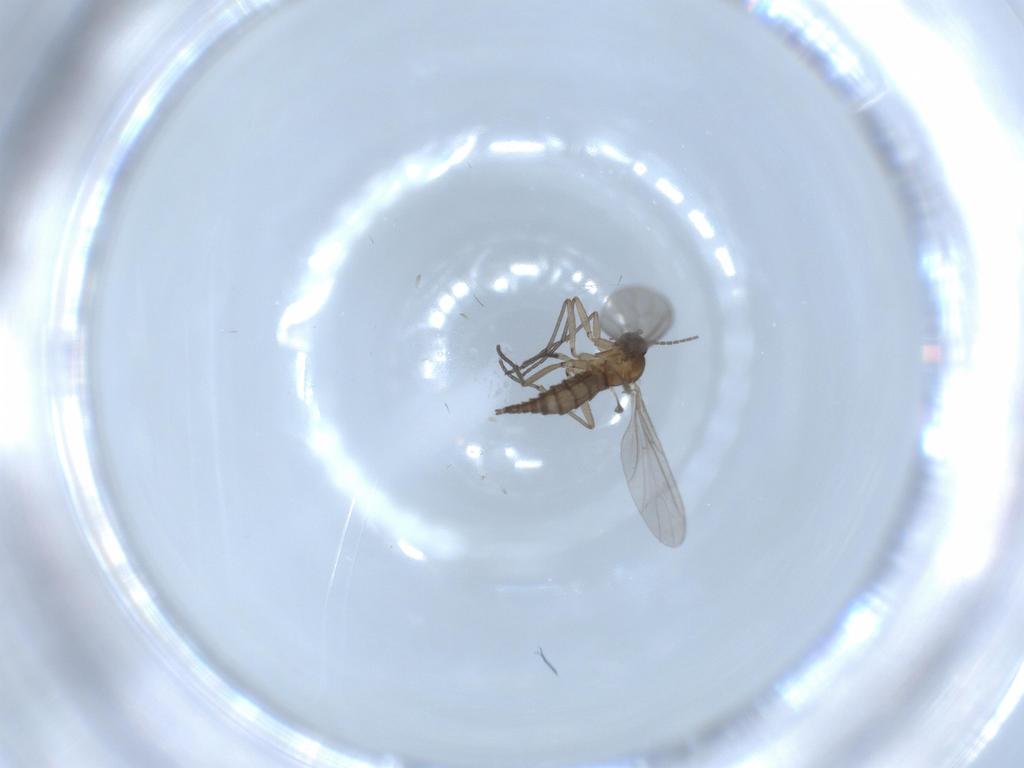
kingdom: Animalia
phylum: Arthropoda
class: Insecta
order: Diptera
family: Sciaridae
